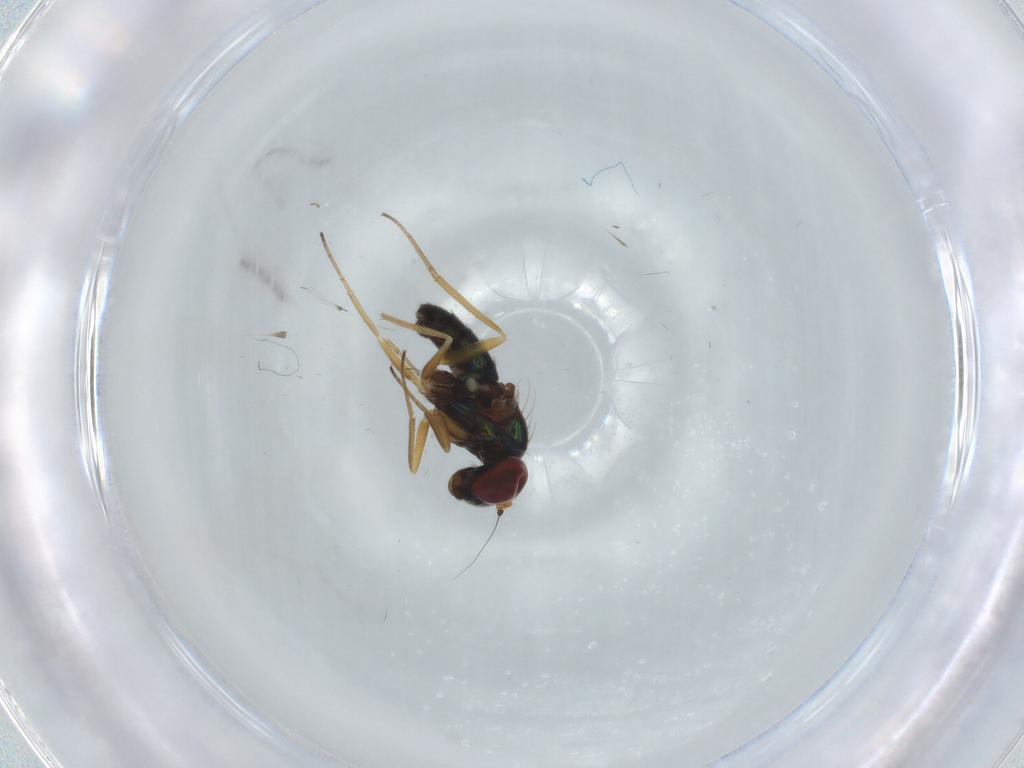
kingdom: Animalia
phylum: Arthropoda
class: Insecta
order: Diptera
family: Dolichopodidae
